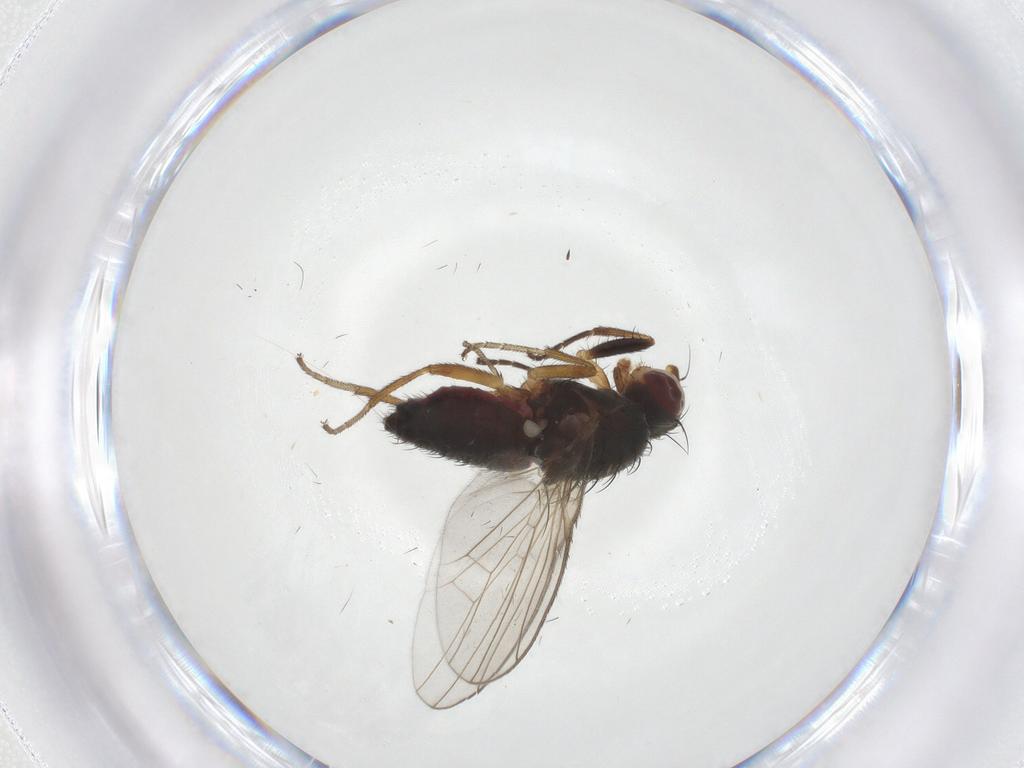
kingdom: Animalia
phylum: Arthropoda
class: Insecta
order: Diptera
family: Heleomyzidae
